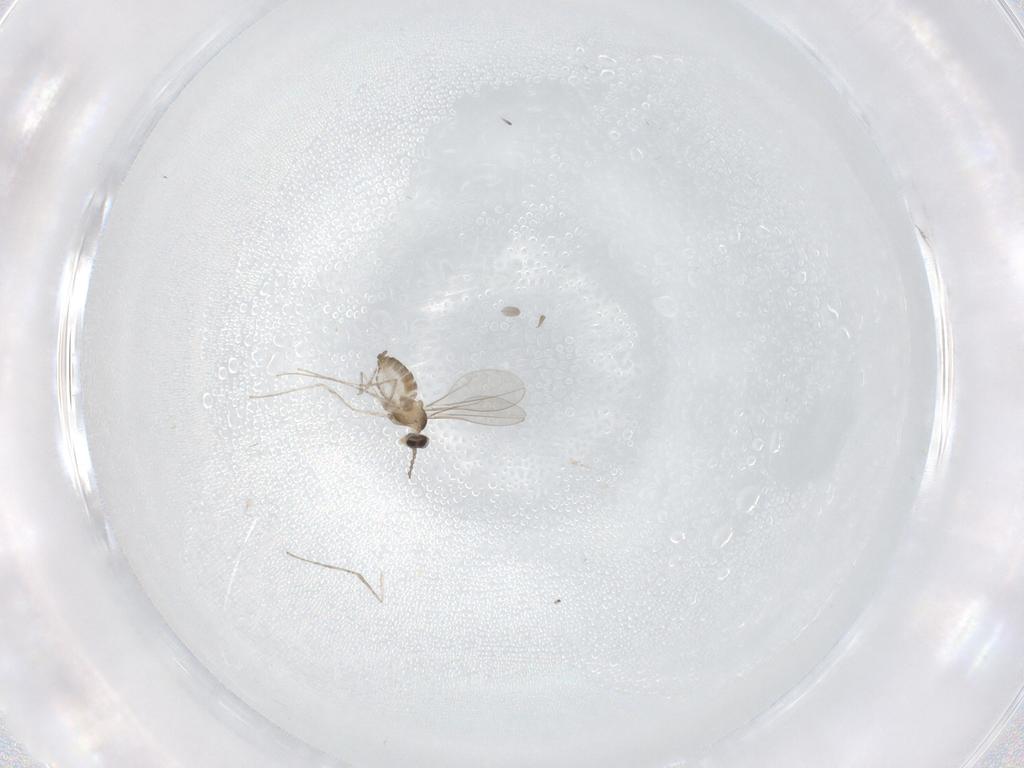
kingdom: Animalia
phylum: Arthropoda
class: Insecta
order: Diptera
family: Cecidomyiidae
